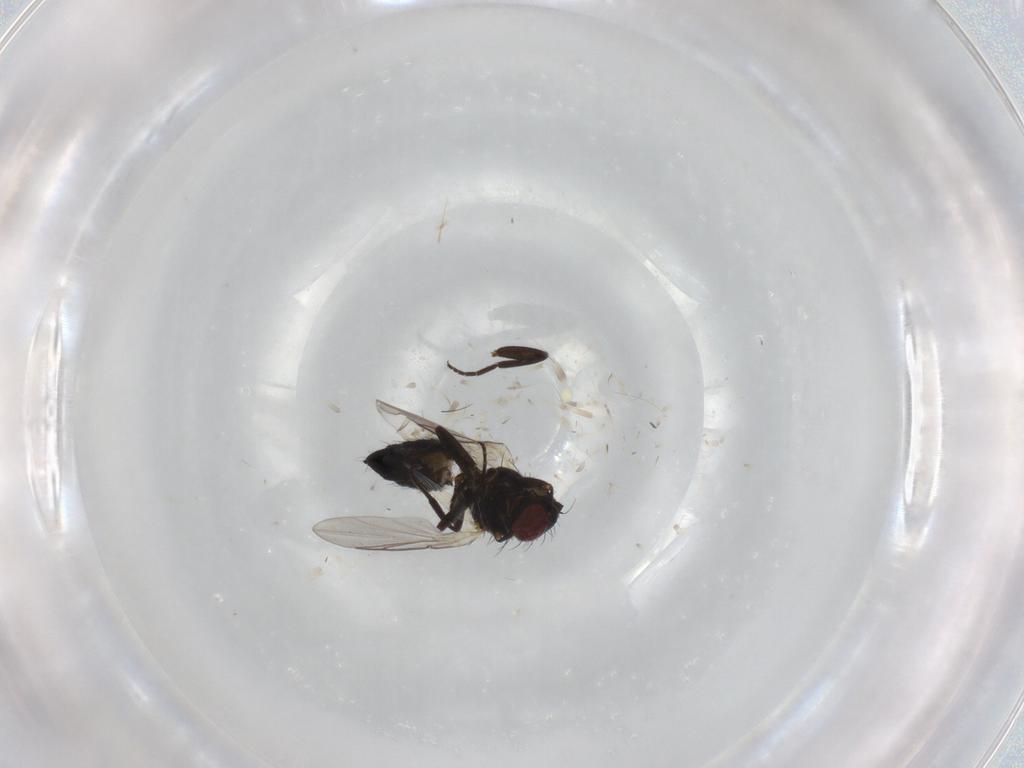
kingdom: Animalia
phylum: Arthropoda
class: Insecta
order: Diptera
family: Agromyzidae
